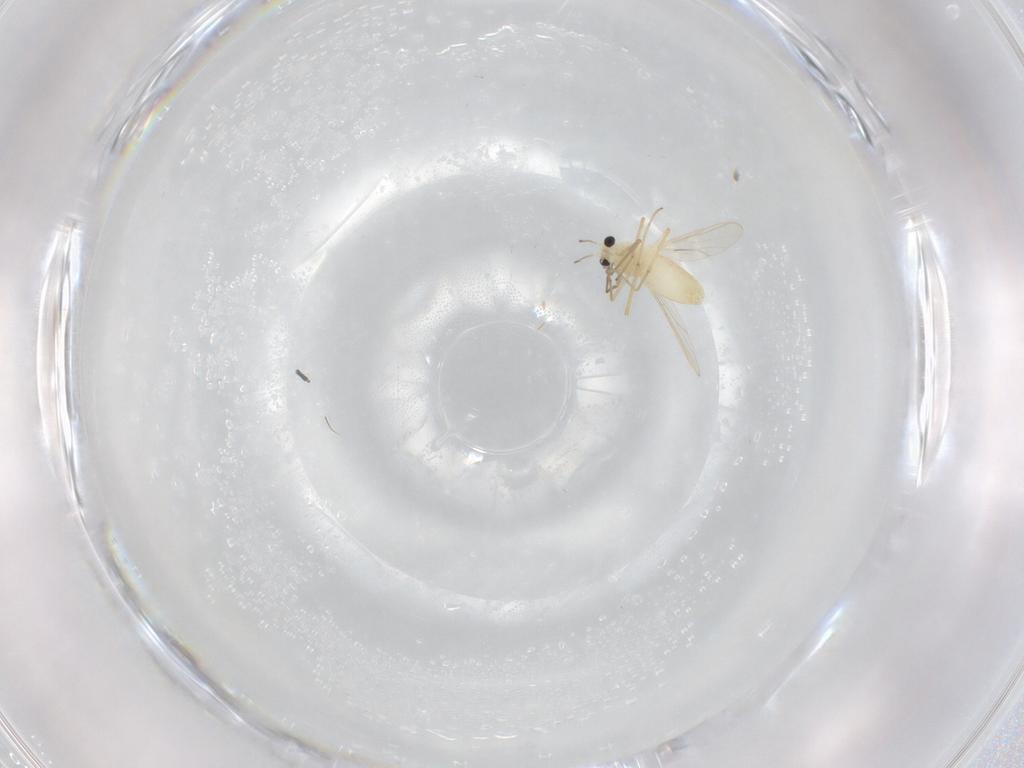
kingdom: Animalia
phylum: Arthropoda
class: Insecta
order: Diptera
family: Chironomidae
